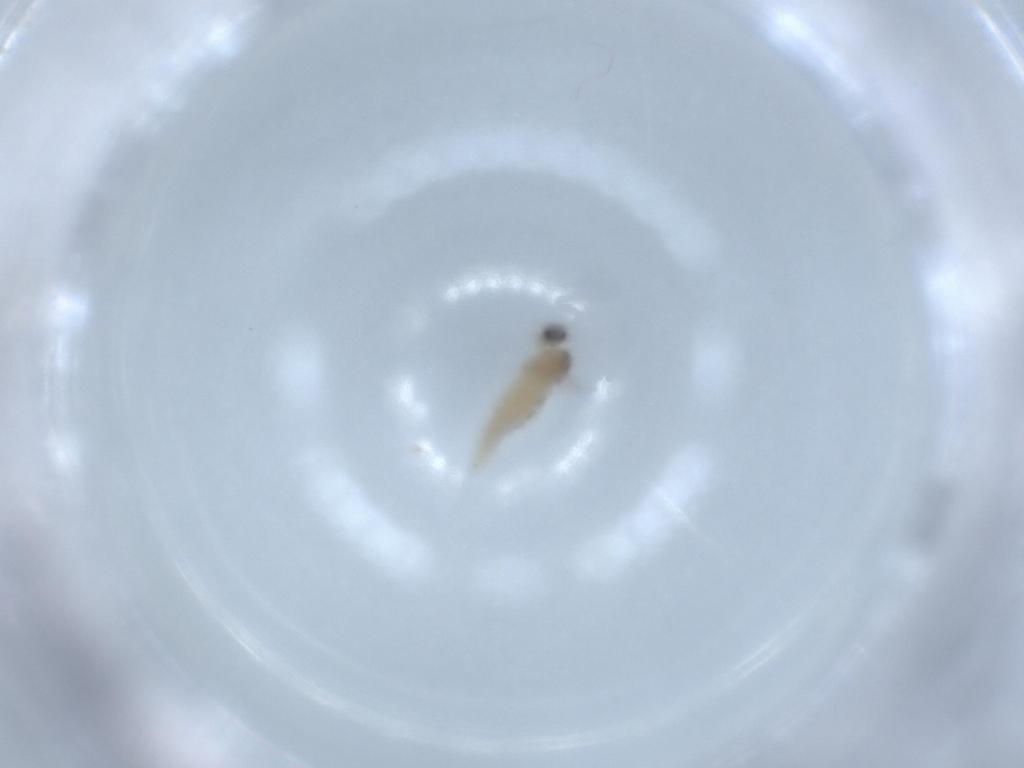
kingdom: Animalia
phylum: Arthropoda
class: Insecta
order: Diptera
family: Cecidomyiidae
